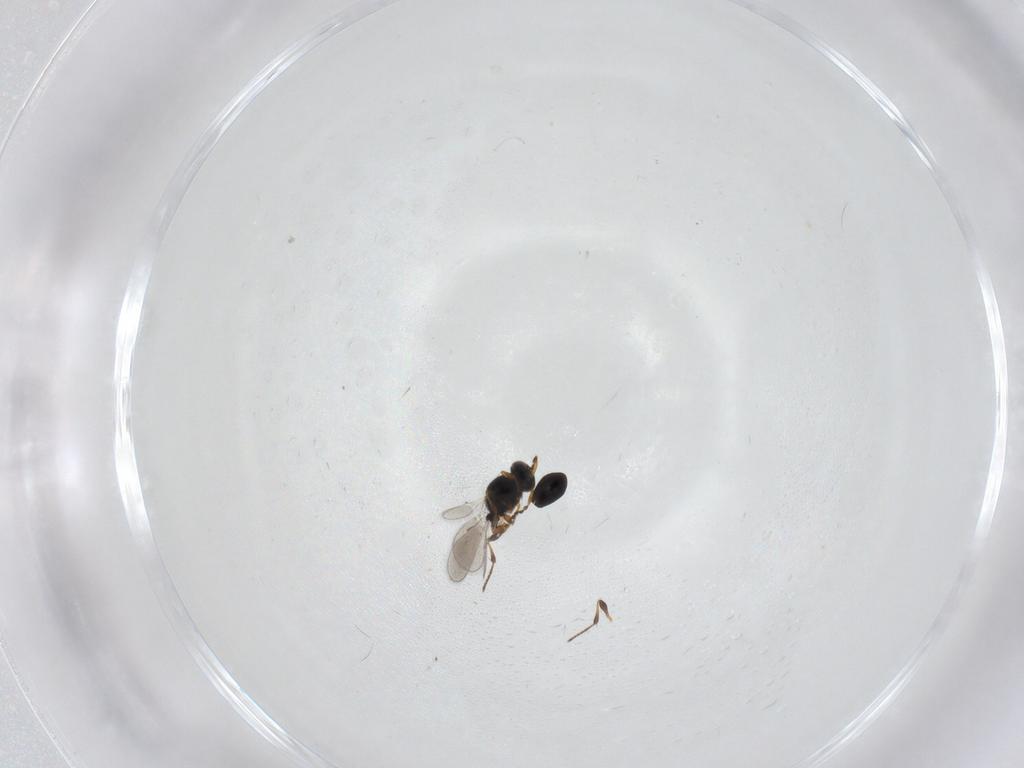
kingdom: Animalia
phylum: Arthropoda
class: Insecta
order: Hymenoptera
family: Platygastridae
